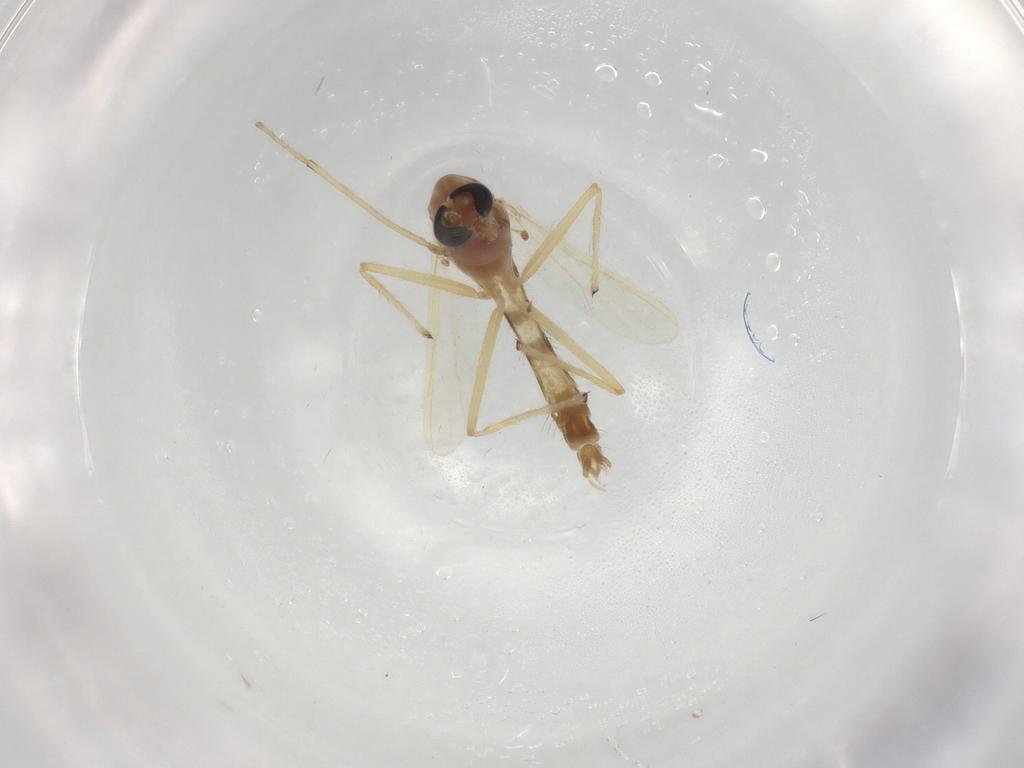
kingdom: Animalia
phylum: Arthropoda
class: Insecta
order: Diptera
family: Chironomidae
